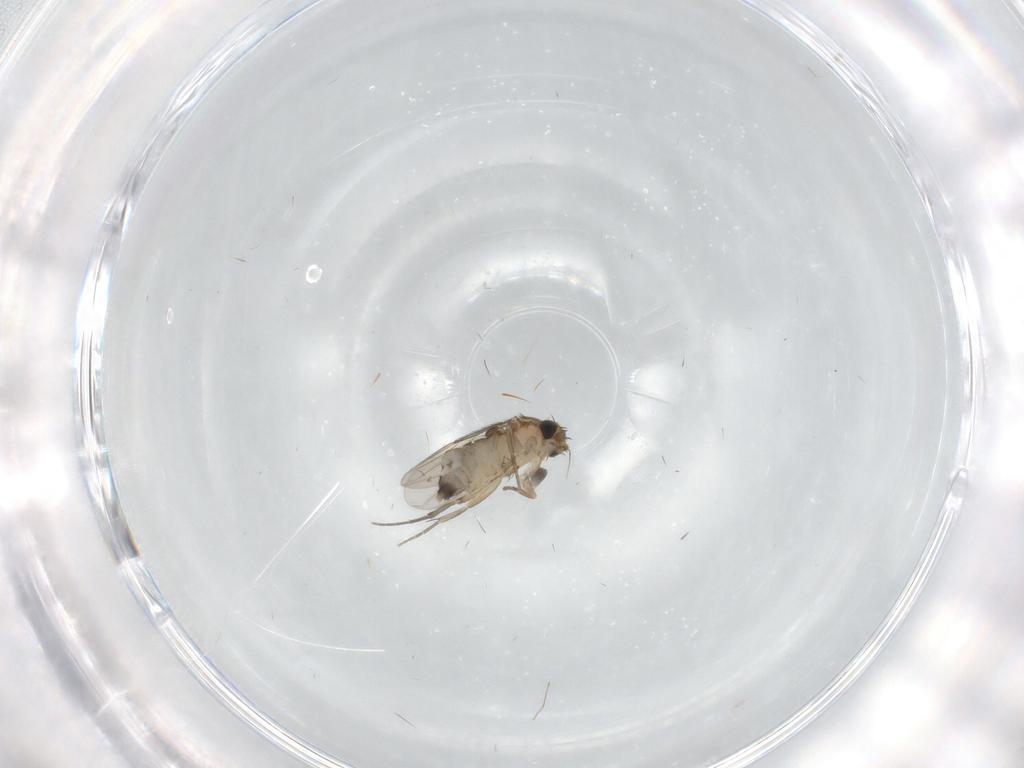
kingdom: Animalia
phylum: Arthropoda
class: Insecta
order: Diptera
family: Phoridae
